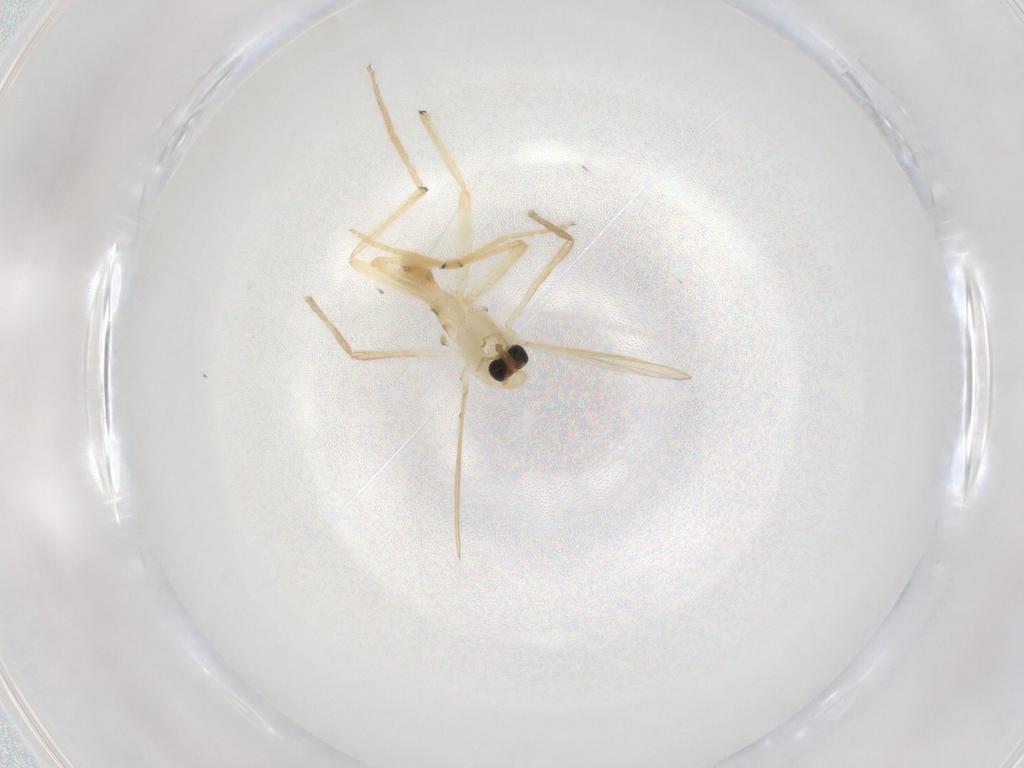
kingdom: Animalia
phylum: Arthropoda
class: Insecta
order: Diptera
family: Chironomidae
